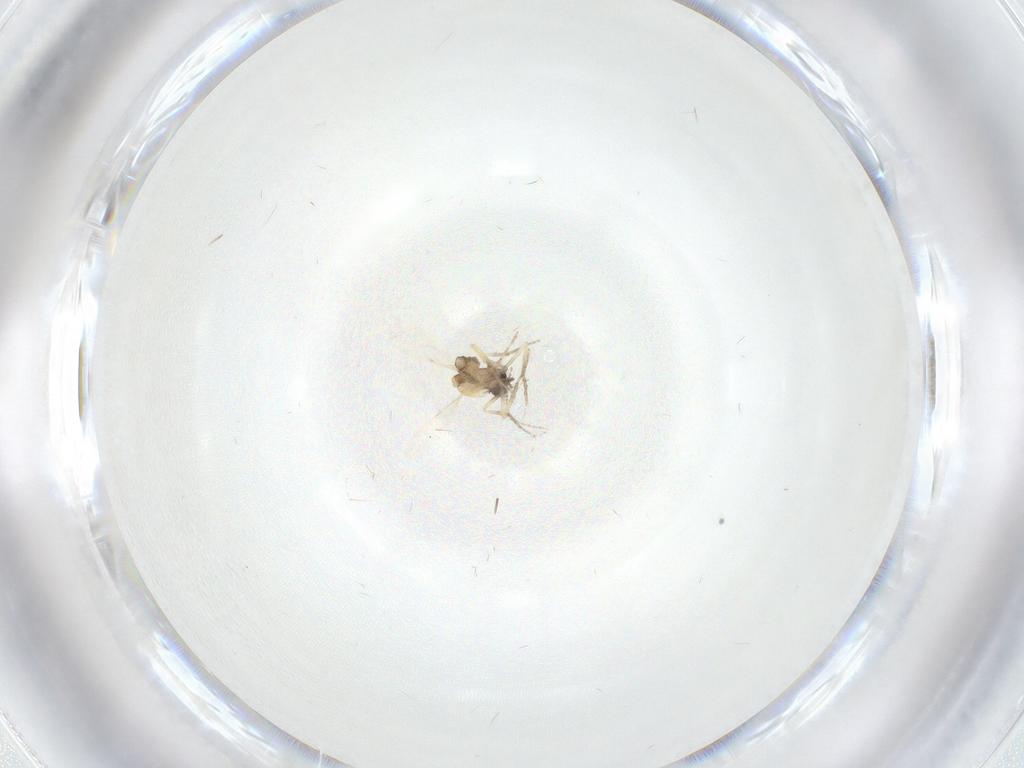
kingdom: Animalia
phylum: Arthropoda
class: Insecta
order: Diptera
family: Ceratopogonidae
